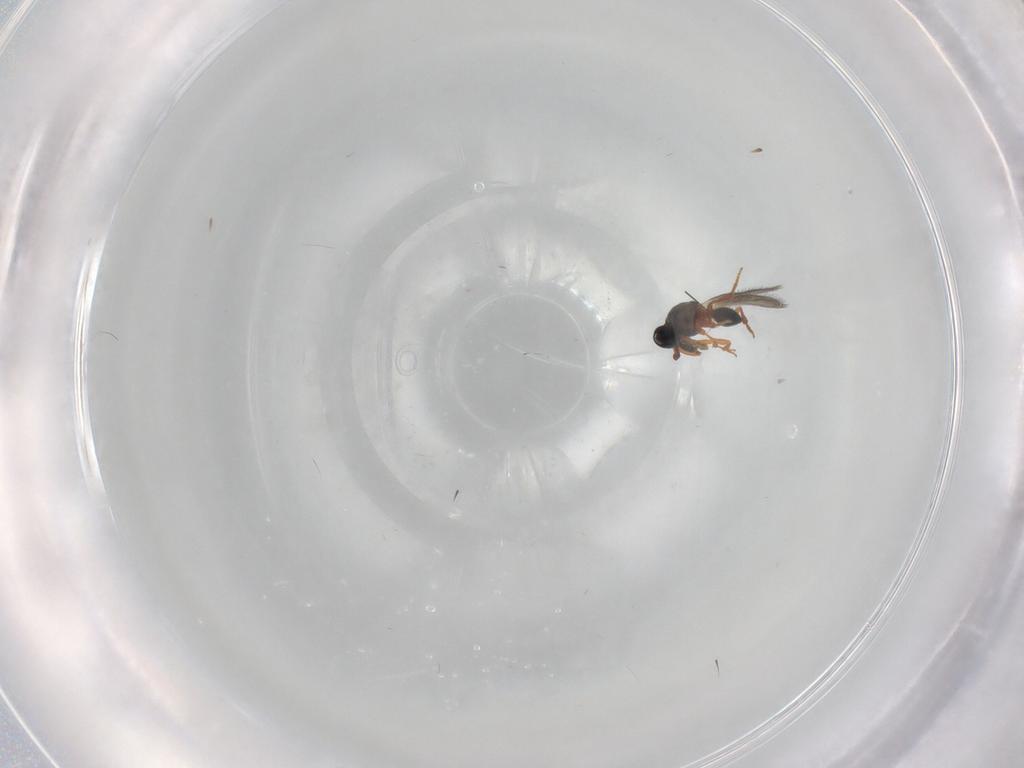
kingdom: Animalia
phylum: Arthropoda
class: Insecta
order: Hymenoptera
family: Platygastridae
